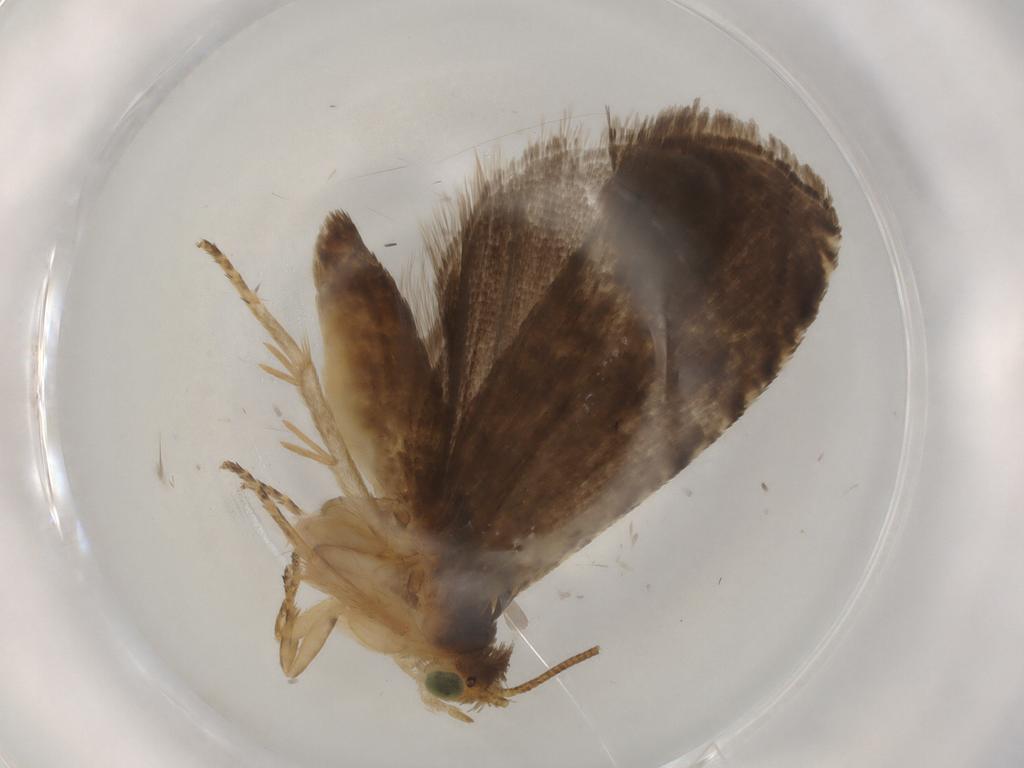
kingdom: Animalia
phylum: Arthropoda
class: Insecta
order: Lepidoptera
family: Tortricidae
